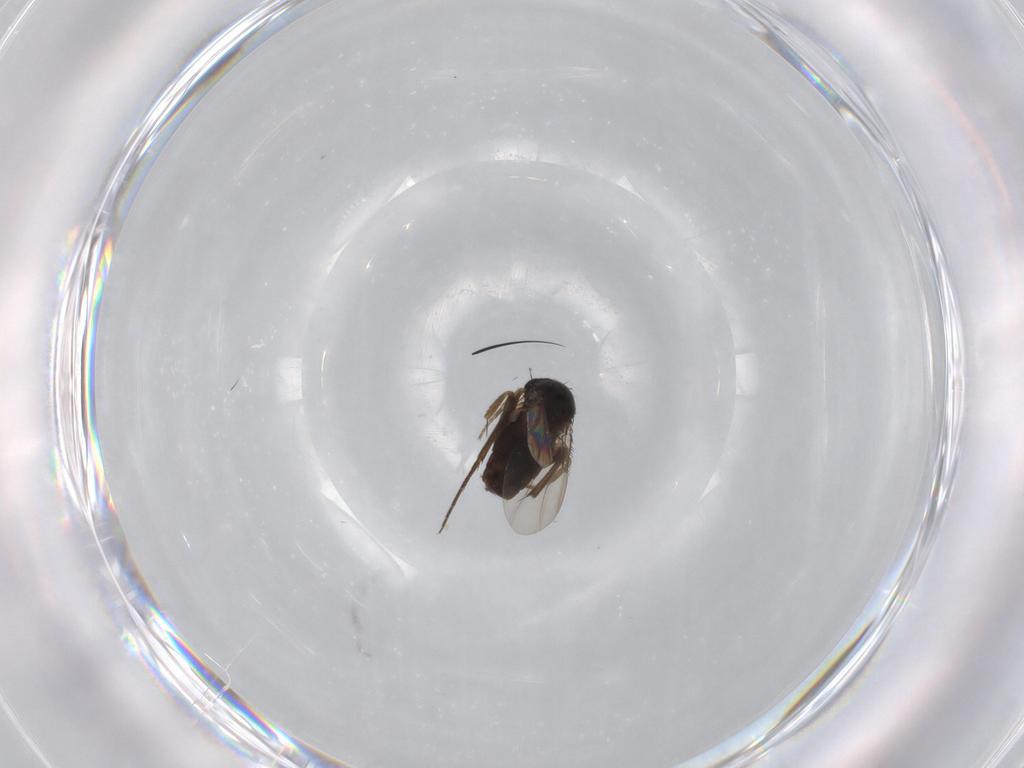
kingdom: Animalia
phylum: Arthropoda
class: Insecta
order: Diptera
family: Phoridae
